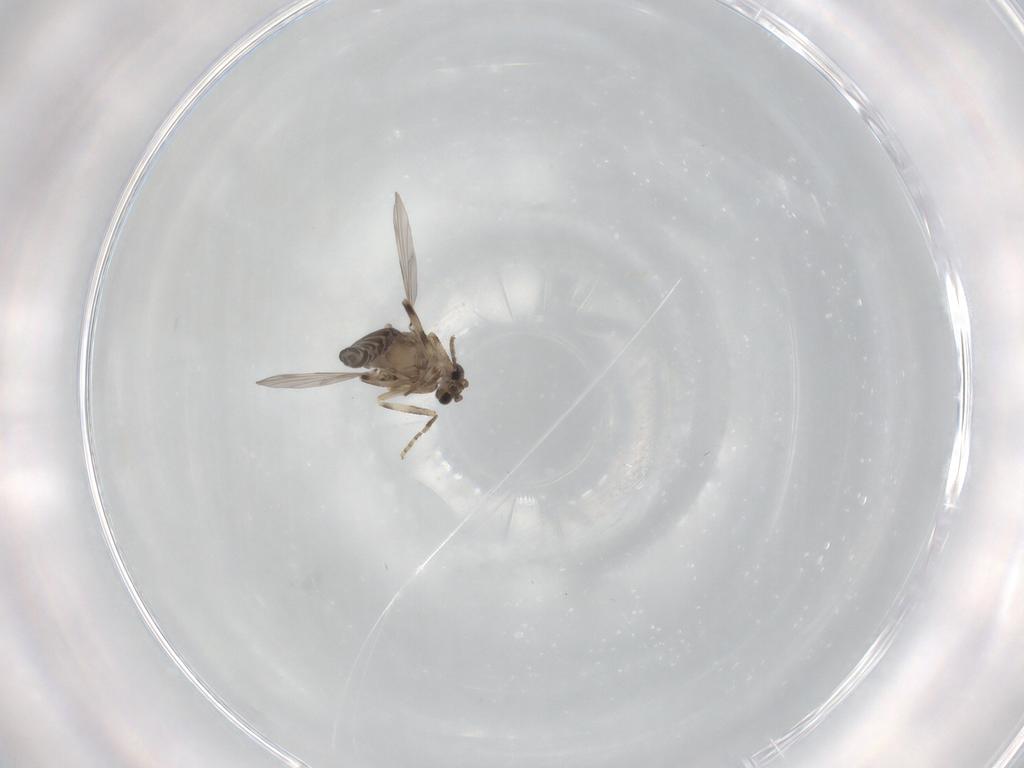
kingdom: Animalia
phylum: Arthropoda
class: Insecta
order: Diptera
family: Ceratopogonidae
